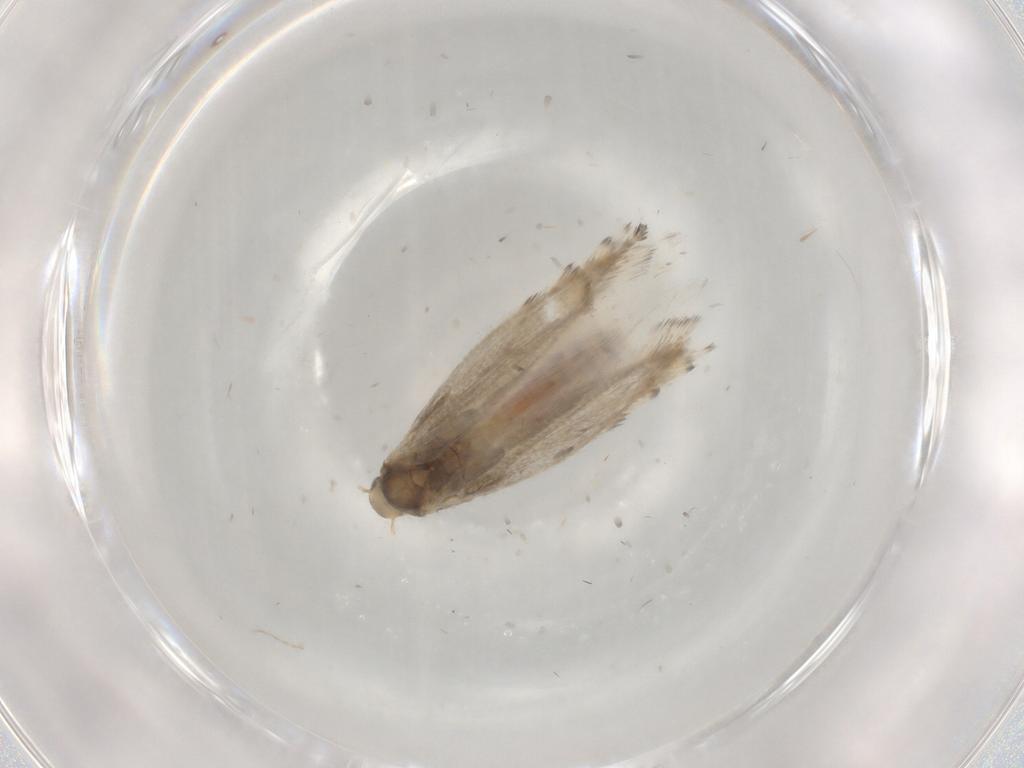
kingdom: Animalia
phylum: Arthropoda
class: Insecta
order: Lepidoptera
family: Gracillariidae
